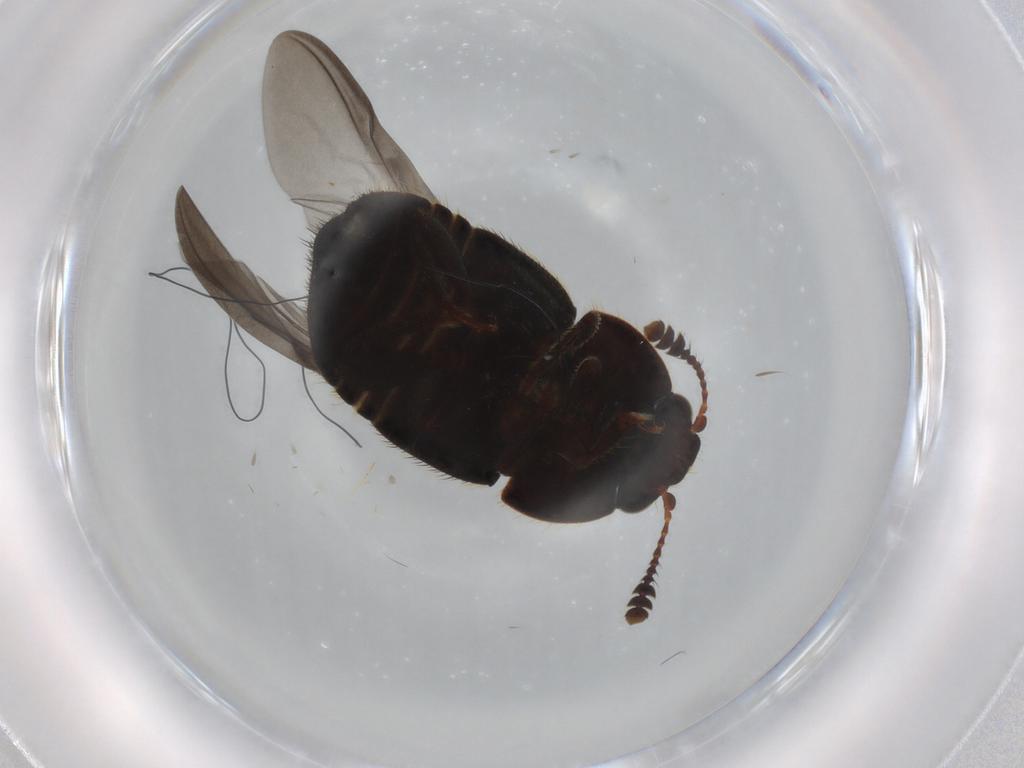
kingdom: Animalia
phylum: Arthropoda
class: Insecta
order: Coleoptera
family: Nitidulidae
